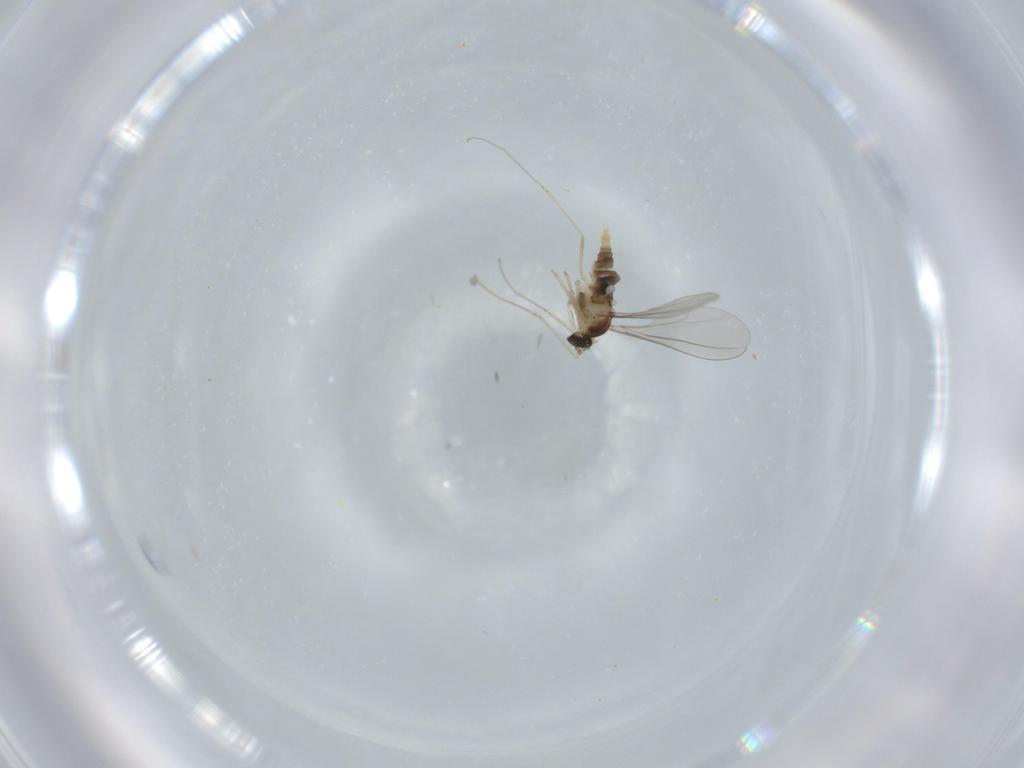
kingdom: Animalia
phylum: Arthropoda
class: Insecta
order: Diptera
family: Cecidomyiidae
